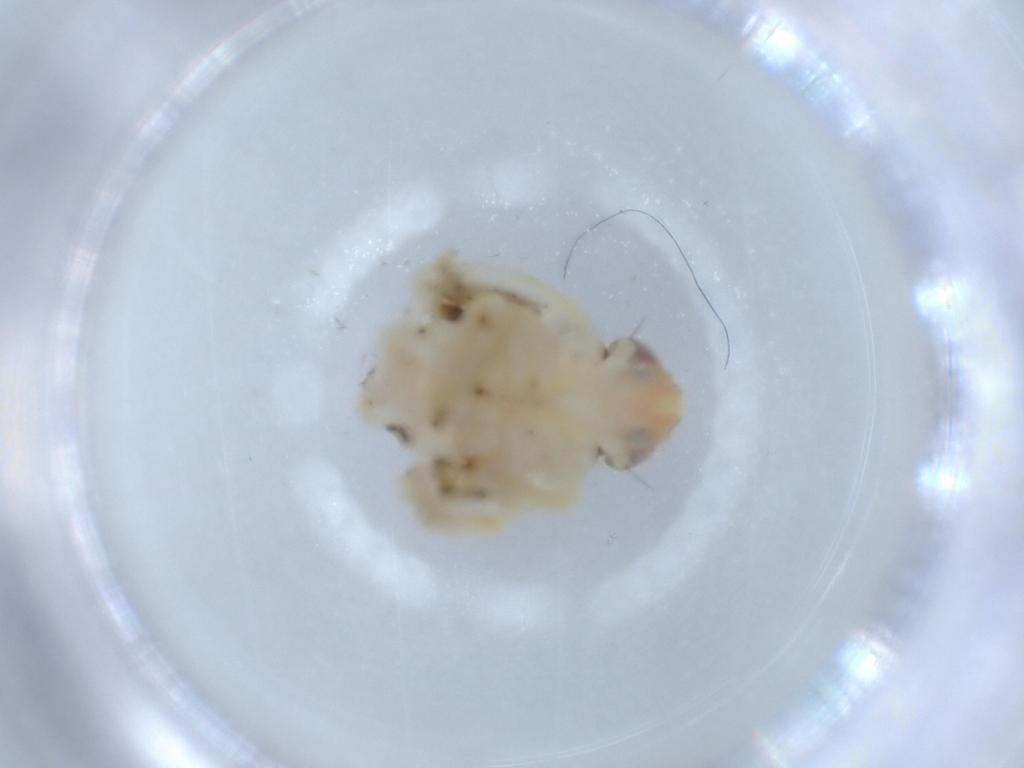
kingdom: Animalia
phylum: Arthropoda
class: Insecta
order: Hemiptera
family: Nogodinidae
